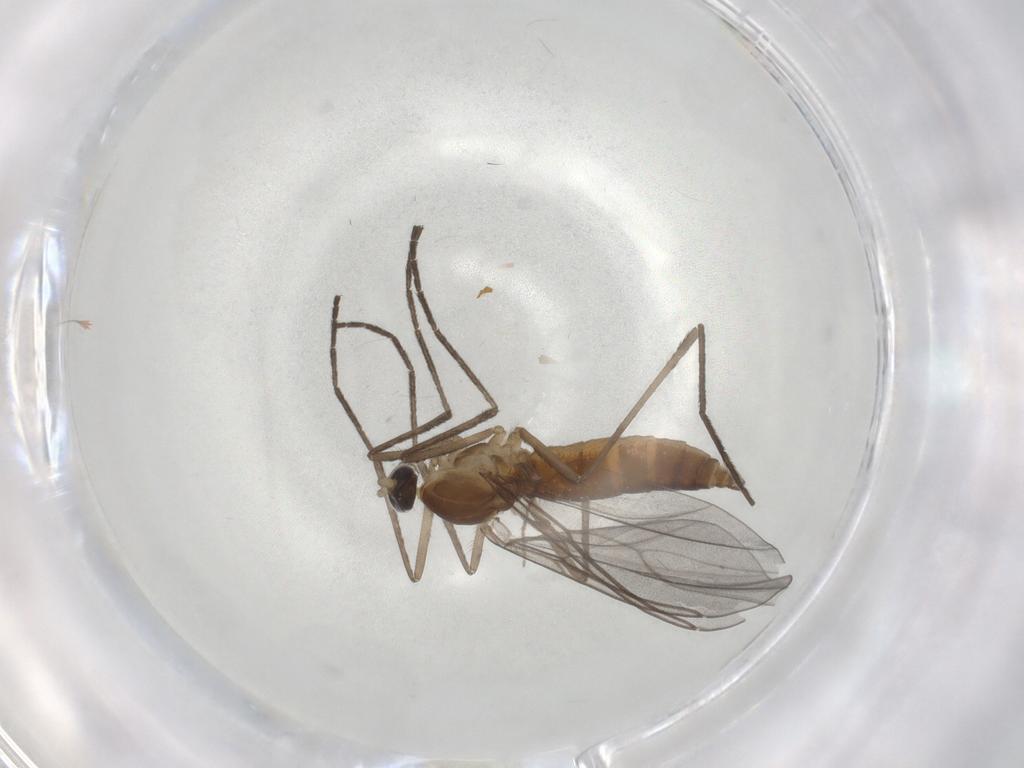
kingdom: Animalia
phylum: Arthropoda
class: Insecta
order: Diptera
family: Cecidomyiidae
